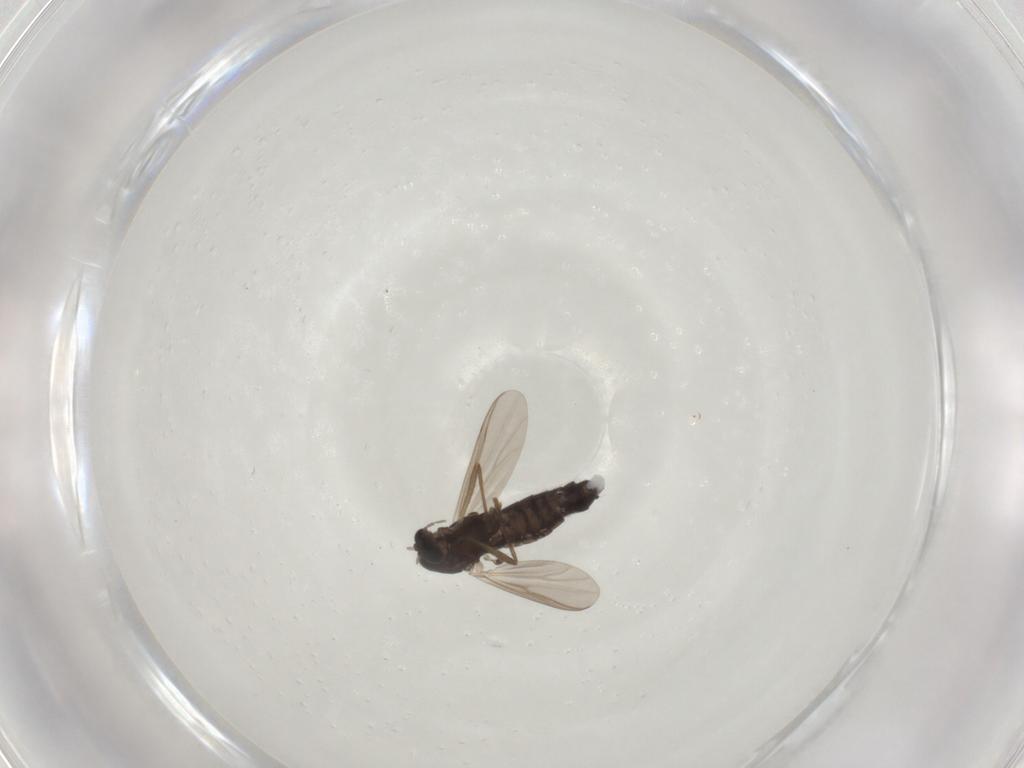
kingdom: Animalia
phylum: Arthropoda
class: Insecta
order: Diptera
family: Chironomidae
